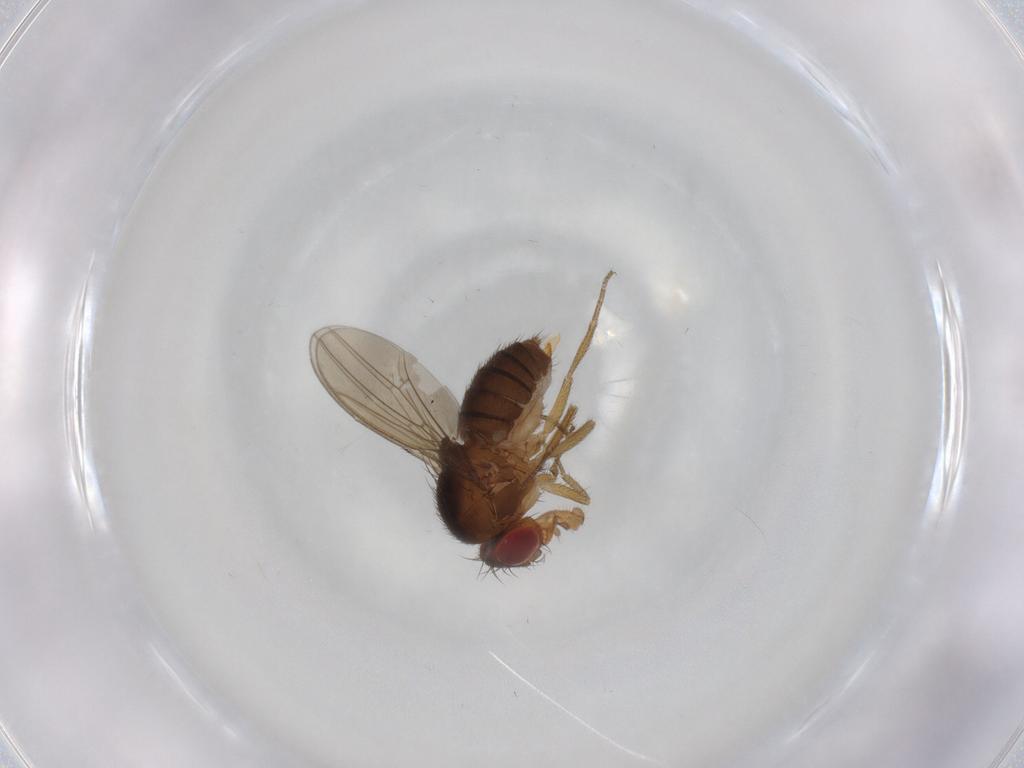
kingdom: Animalia
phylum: Arthropoda
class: Insecta
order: Diptera
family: Drosophilidae
